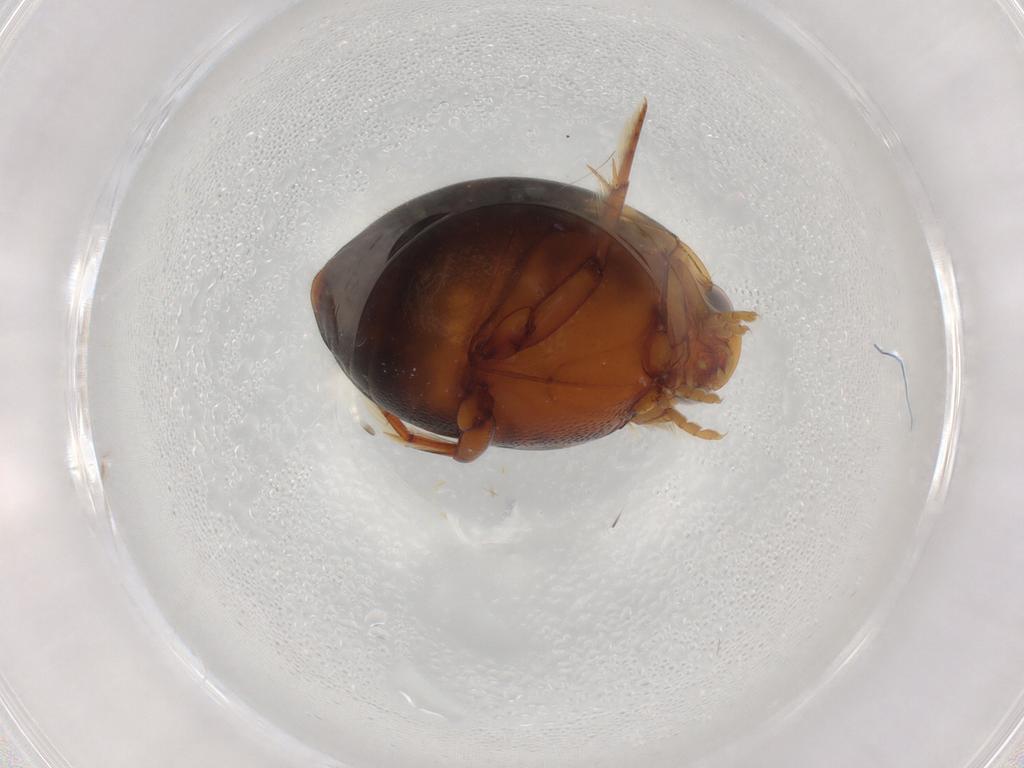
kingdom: Animalia
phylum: Arthropoda
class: Insecta
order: Coleoptera
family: Dytiscidae
